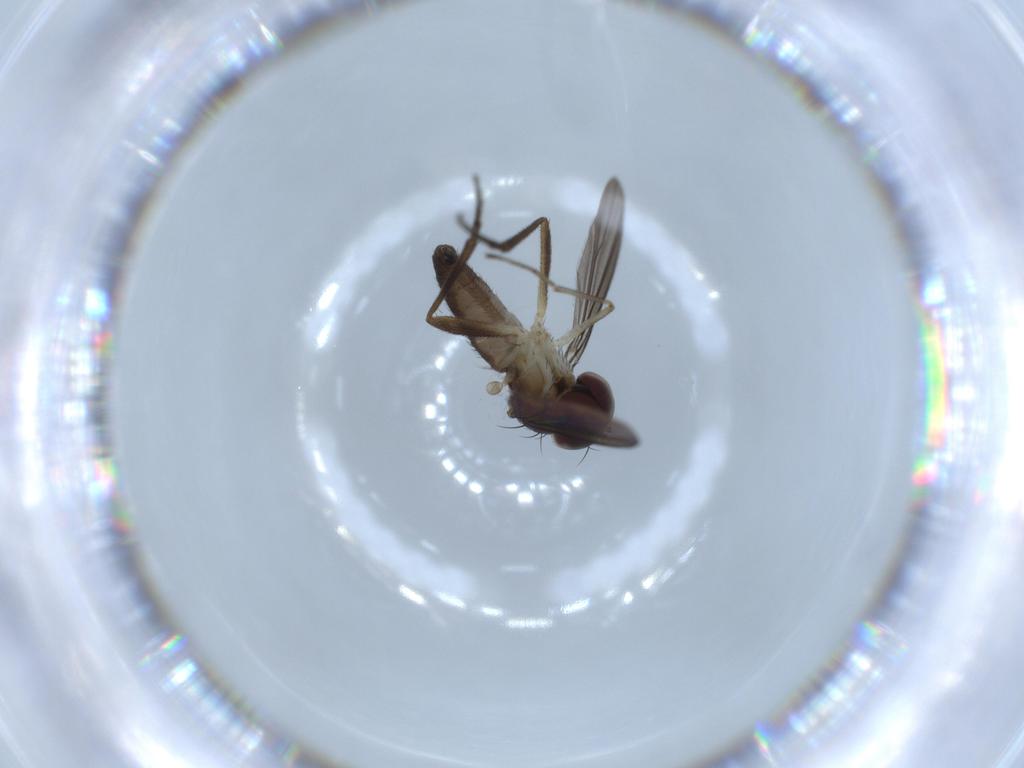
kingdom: Animalia
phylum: Arthropoda
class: Insecta
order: Diptera
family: Dolichopodidae
